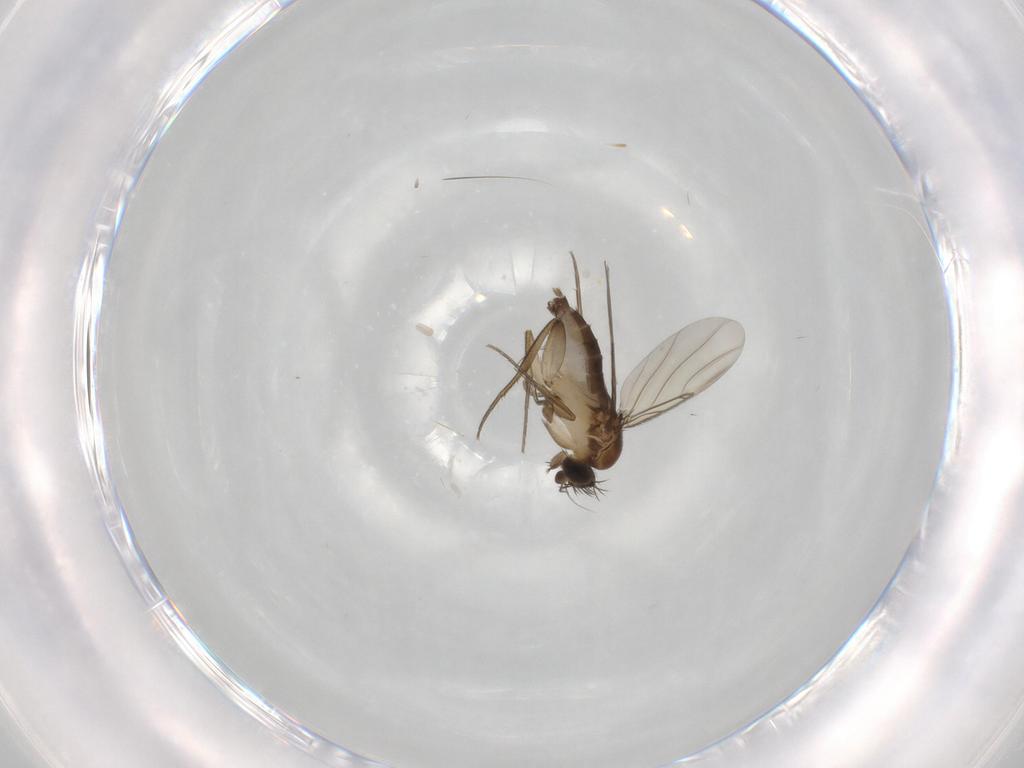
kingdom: Animalia
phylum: Arthropoda
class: Insecta
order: Diptera
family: Phoridae
